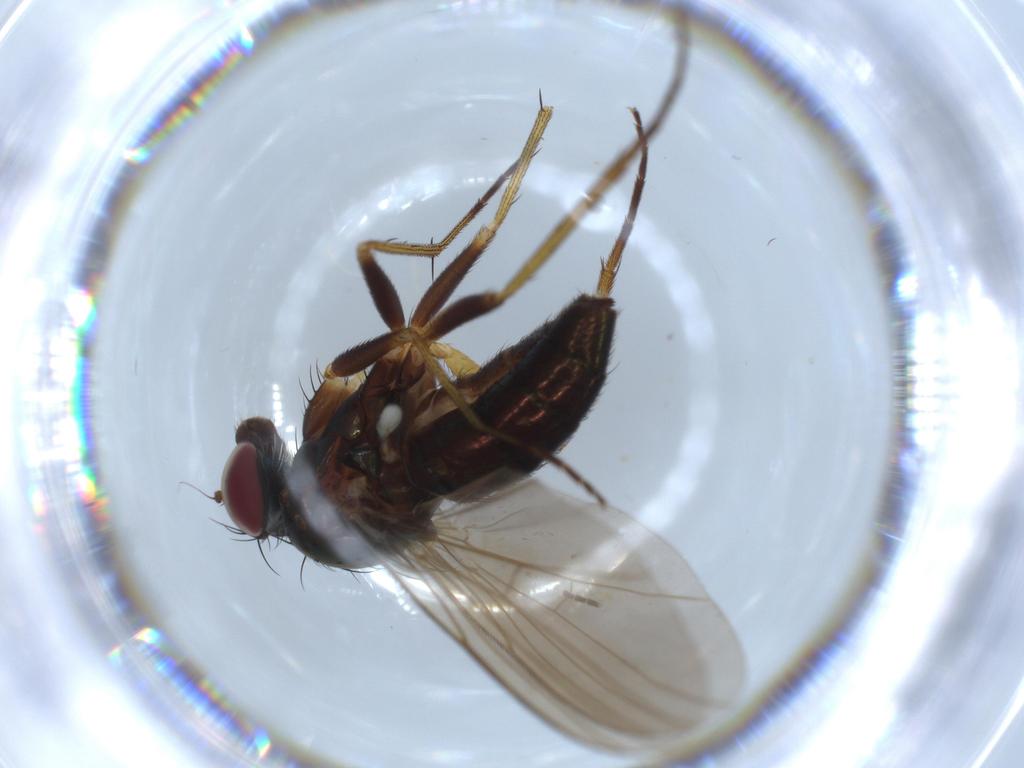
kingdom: Animalia
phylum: Arthropoda
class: Insecta
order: Diptera
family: Dolichopodidae
